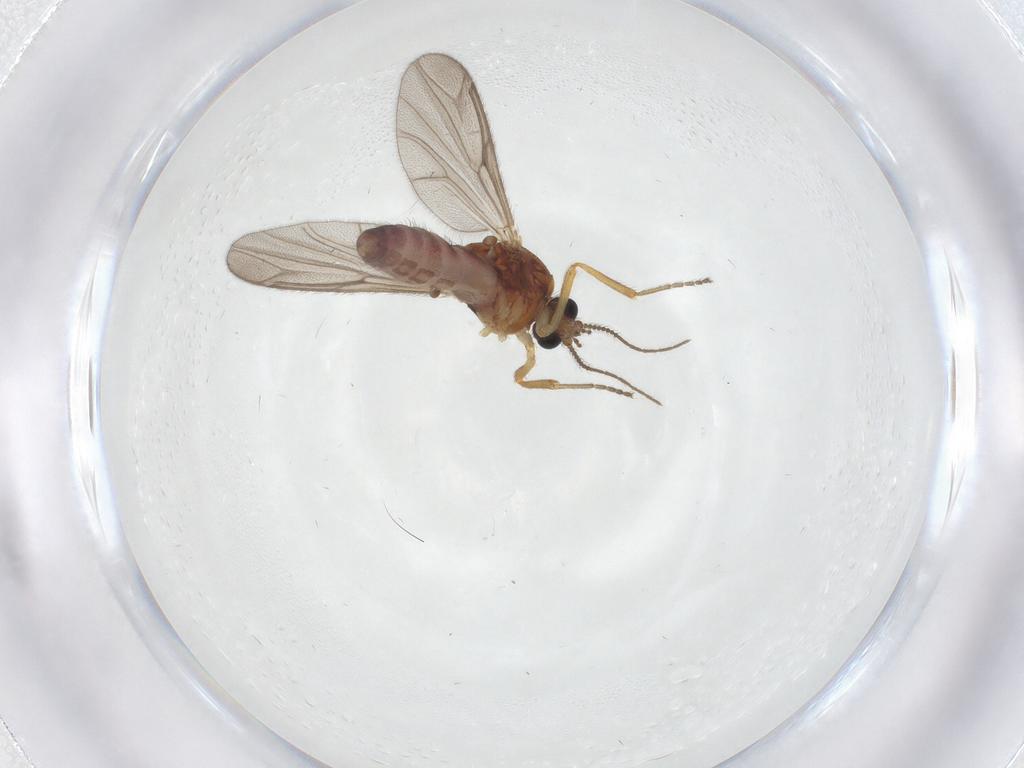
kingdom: Animalia
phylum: Arthropoda
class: Insecta
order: Diptera
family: Ceratopogonidae
